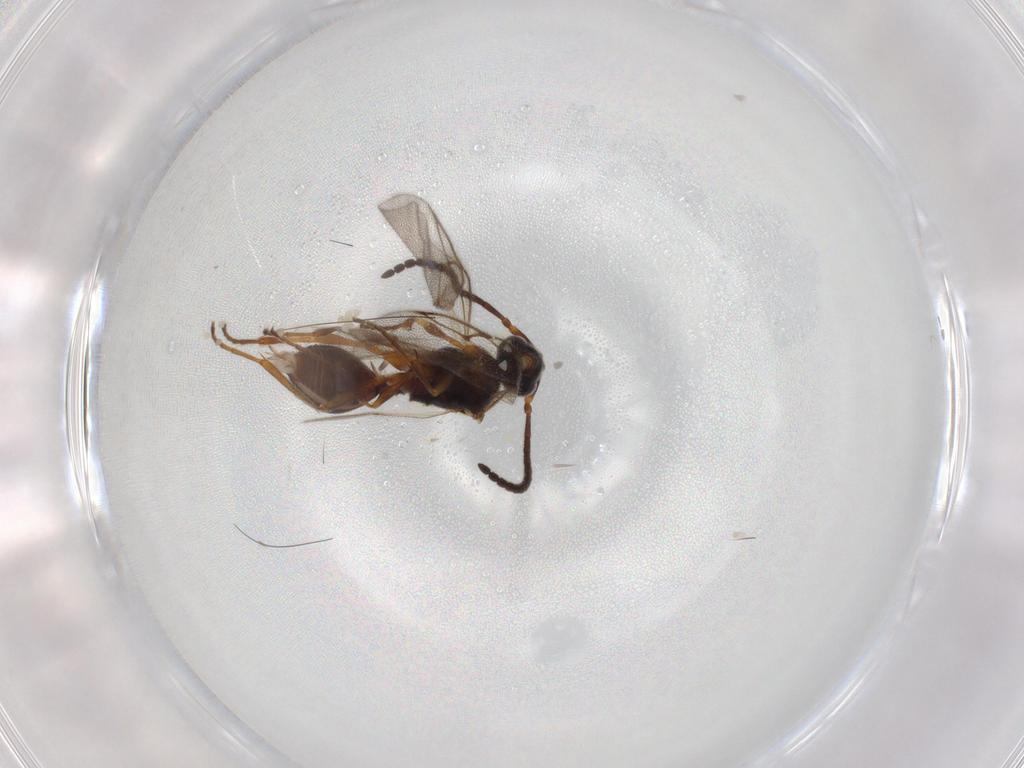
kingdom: Animalia
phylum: Arthropoda
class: Insecta
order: Hymenoptera
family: Diapriidae
